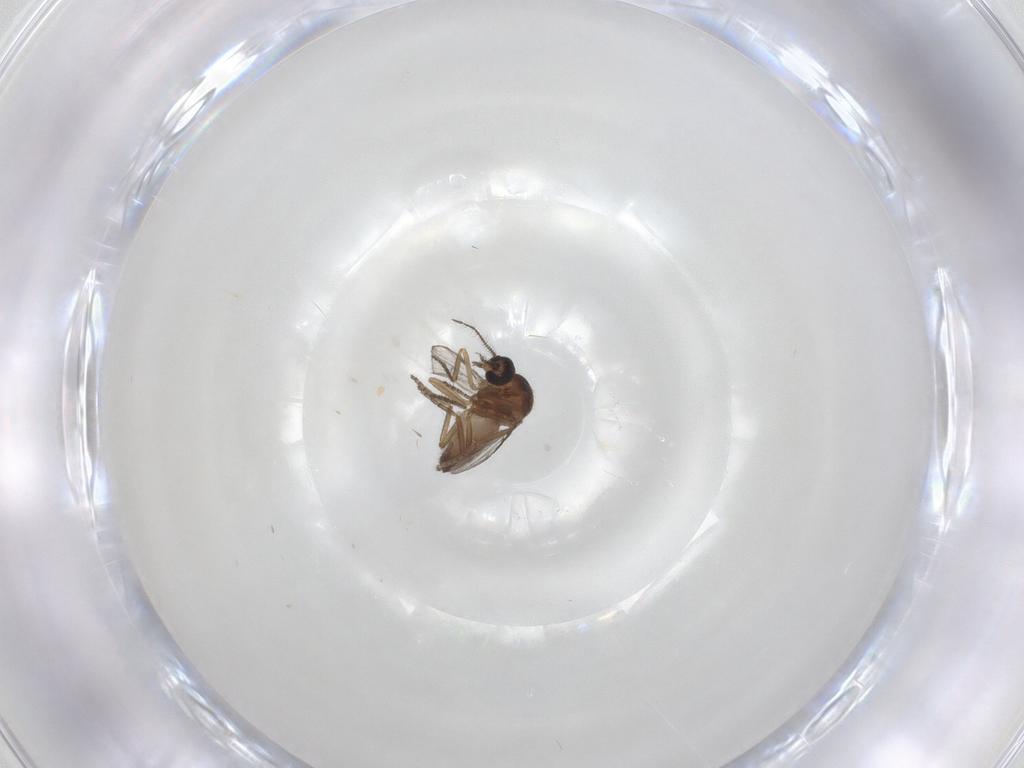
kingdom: Animalia
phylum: Arthropoda
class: Insecta
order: Diptera
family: Ceratopogonidae
